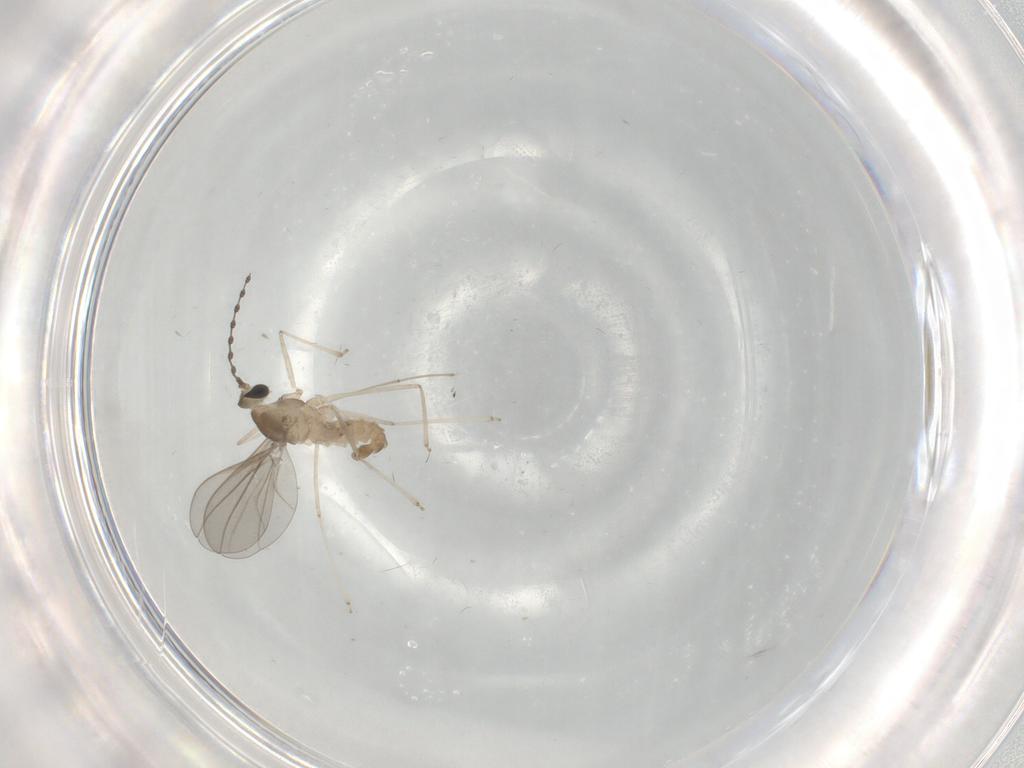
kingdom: Animalia
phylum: Arthropoda
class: Insecta
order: Diptera
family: Cecidomyiidae
